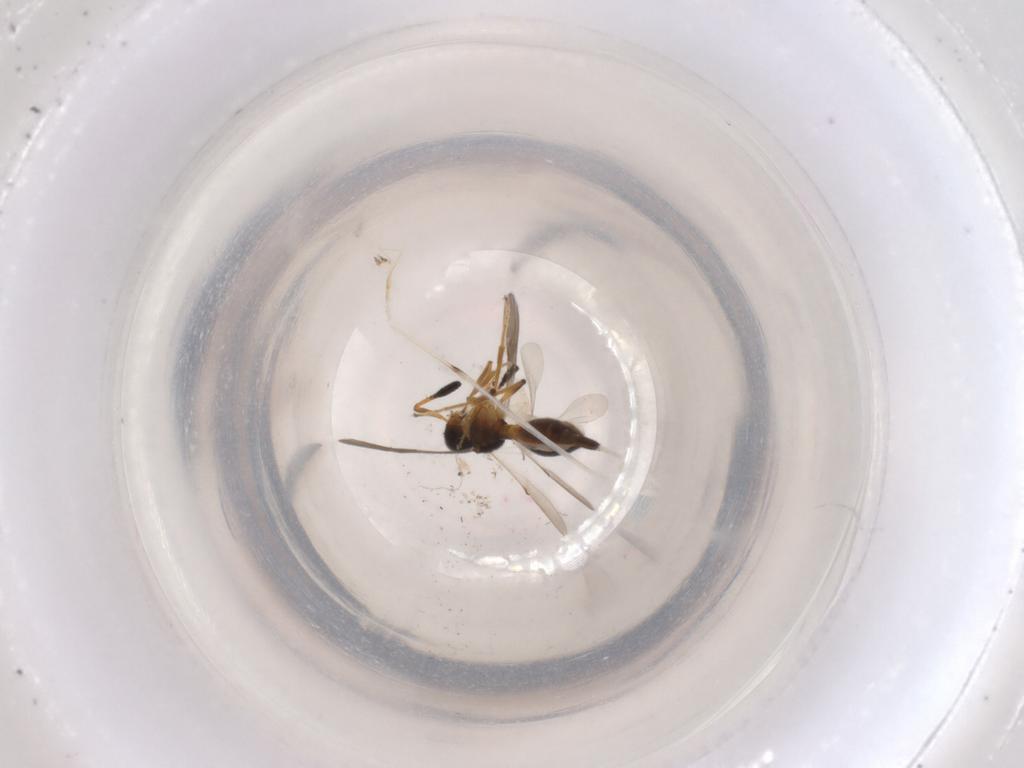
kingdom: Animalia
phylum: Arthropoda
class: Insecta
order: Hymenoptera
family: Scelionidae
